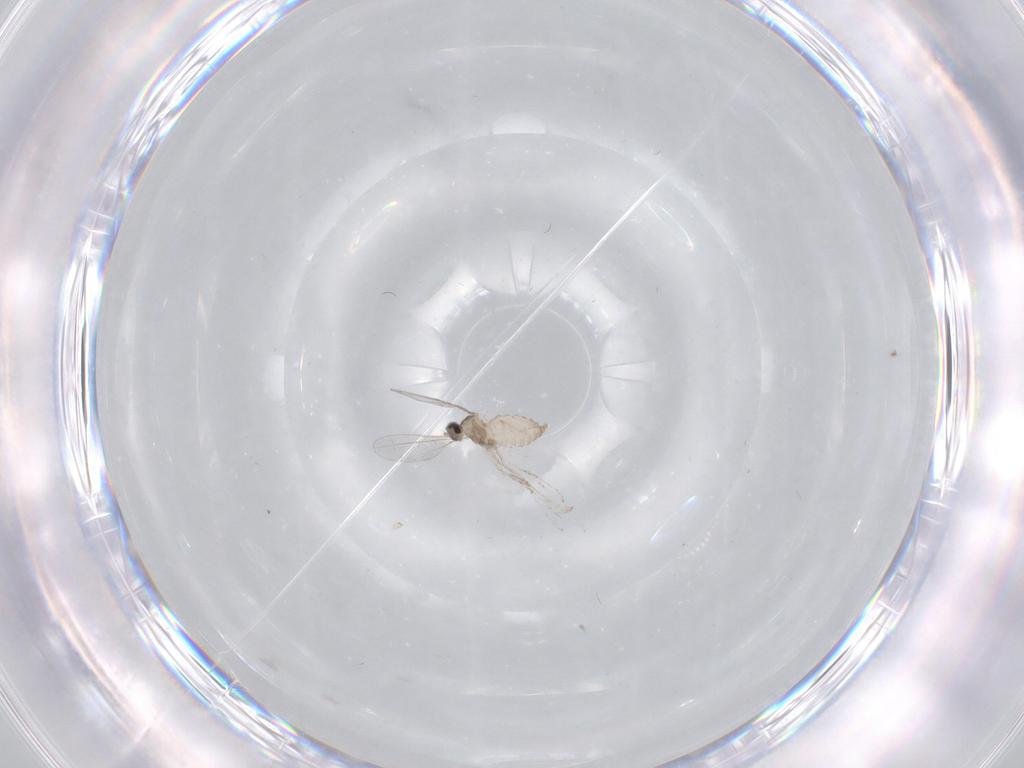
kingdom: Animalia
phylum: Arthropoda
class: Insecta
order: Diptera
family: Cecidomyiidae
